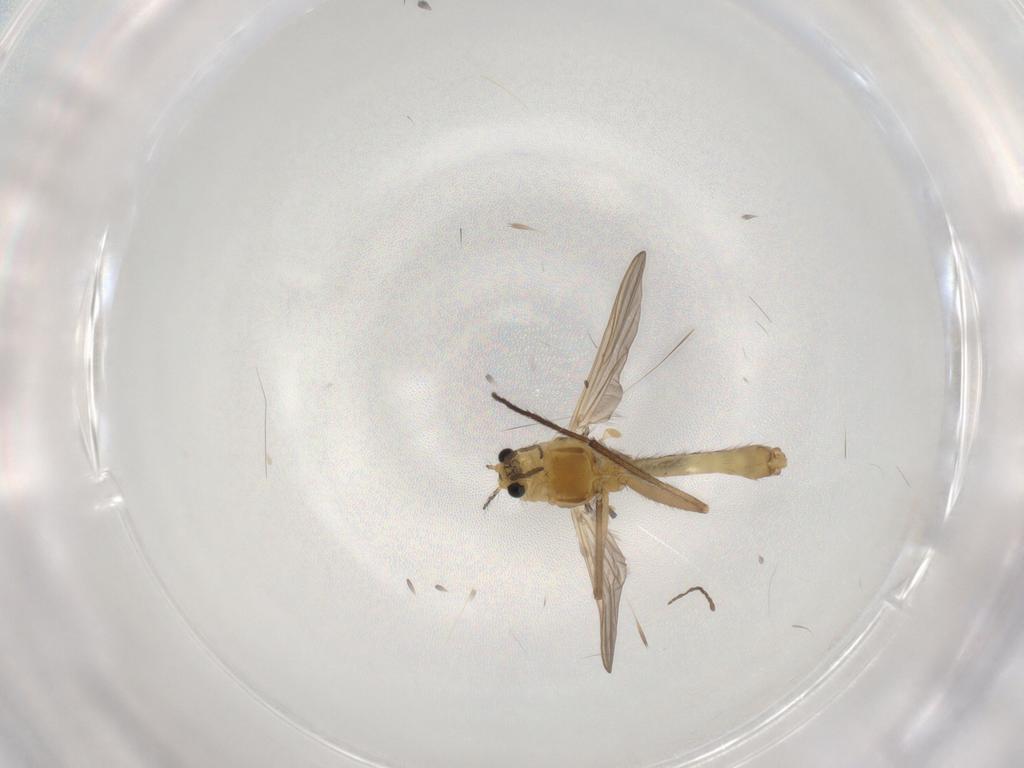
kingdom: Animalia
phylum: Arthropoda
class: Insecta
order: Diptera
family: Chironomidae
